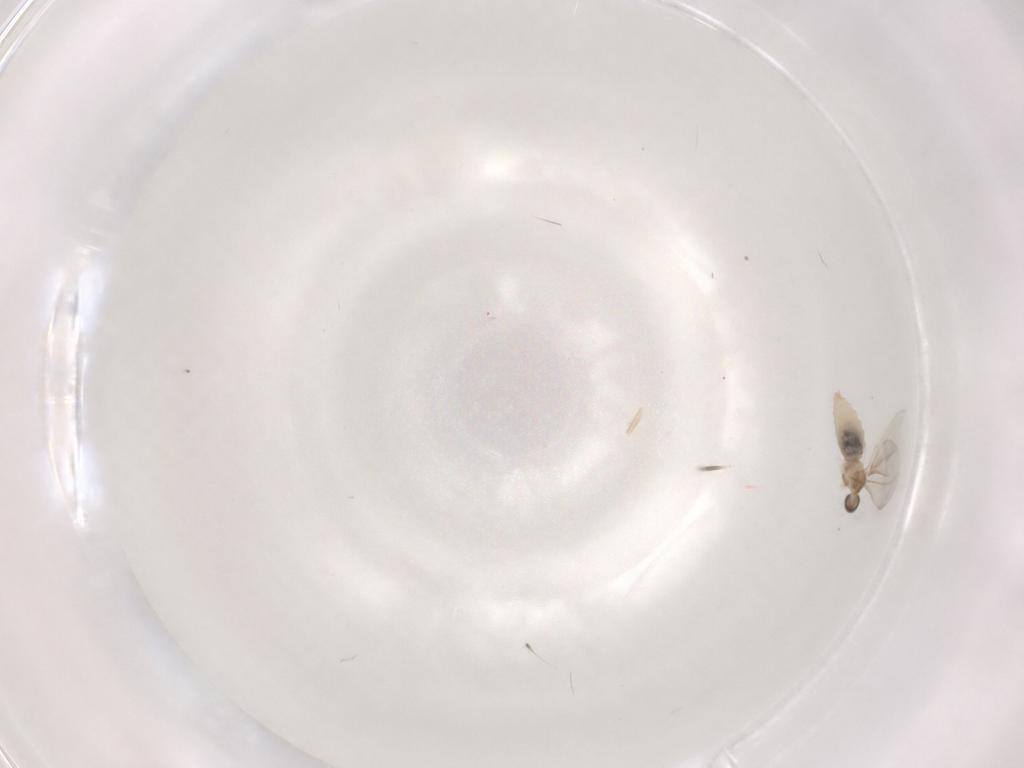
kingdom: Animalia
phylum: Arthropoda
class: Insecta
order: Diptera
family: Cecidomyiidae
